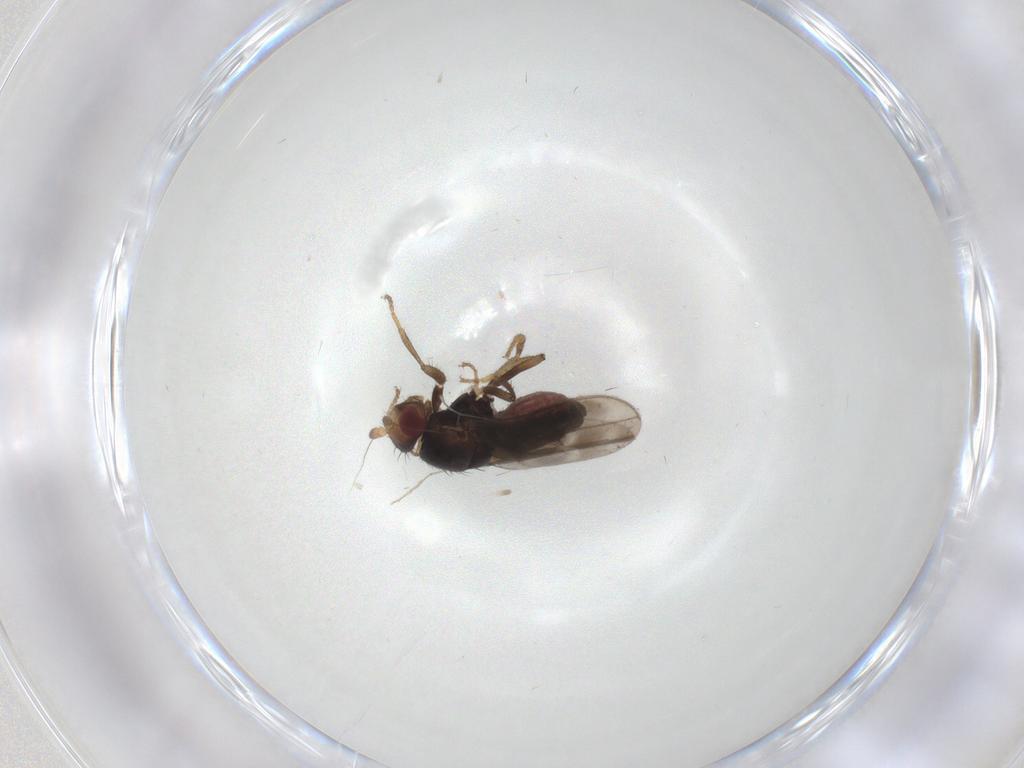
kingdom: Animalia
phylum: Arthropoda
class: Insecta
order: Diptera
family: Sphaeroceridae
